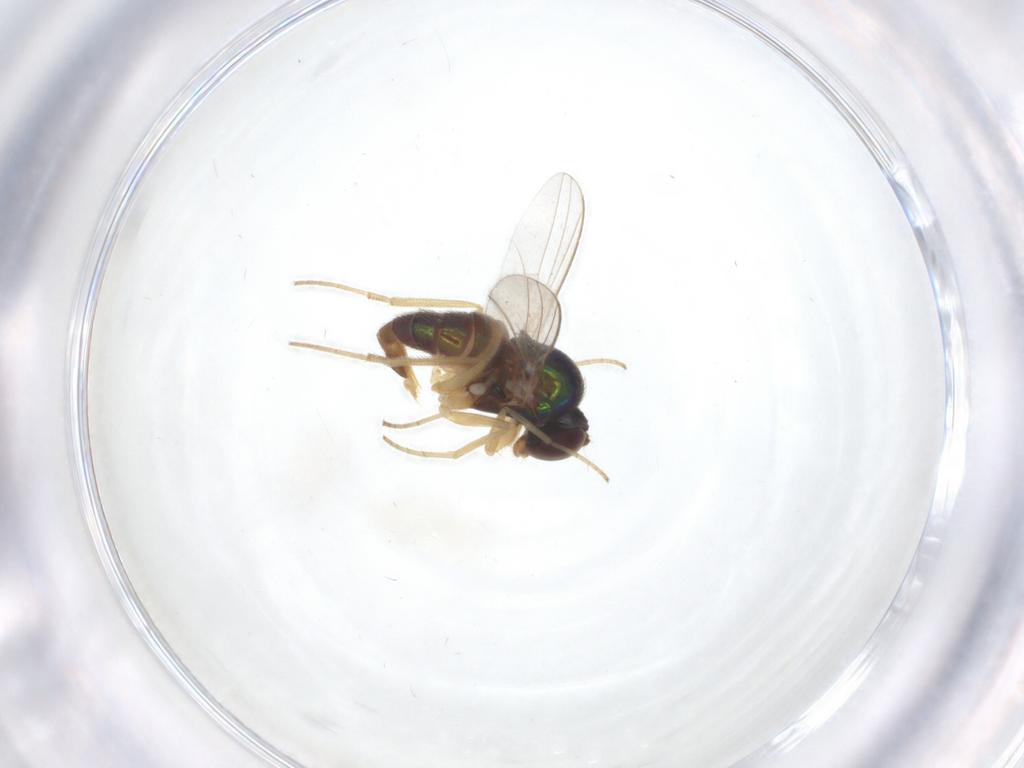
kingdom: Animalia
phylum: Arthropoda
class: Insecta
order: Diptera
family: Dolichopodidae
